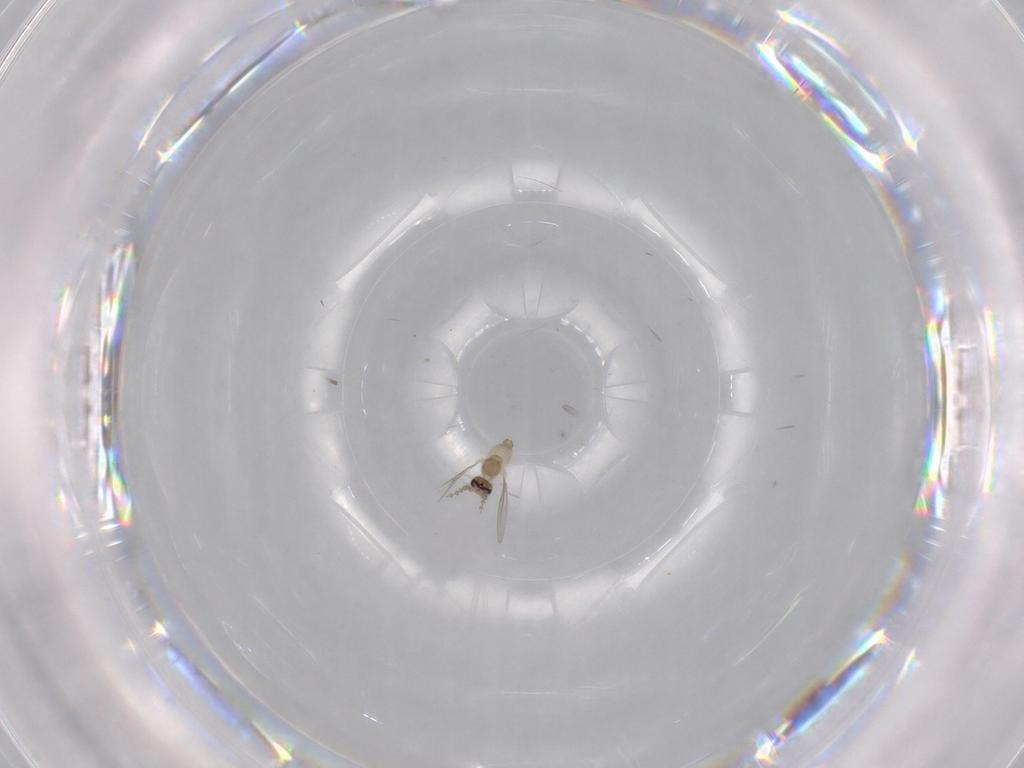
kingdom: Animalia
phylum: Arthropoda
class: Insecta
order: Diptera
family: Cecidomyiidae
